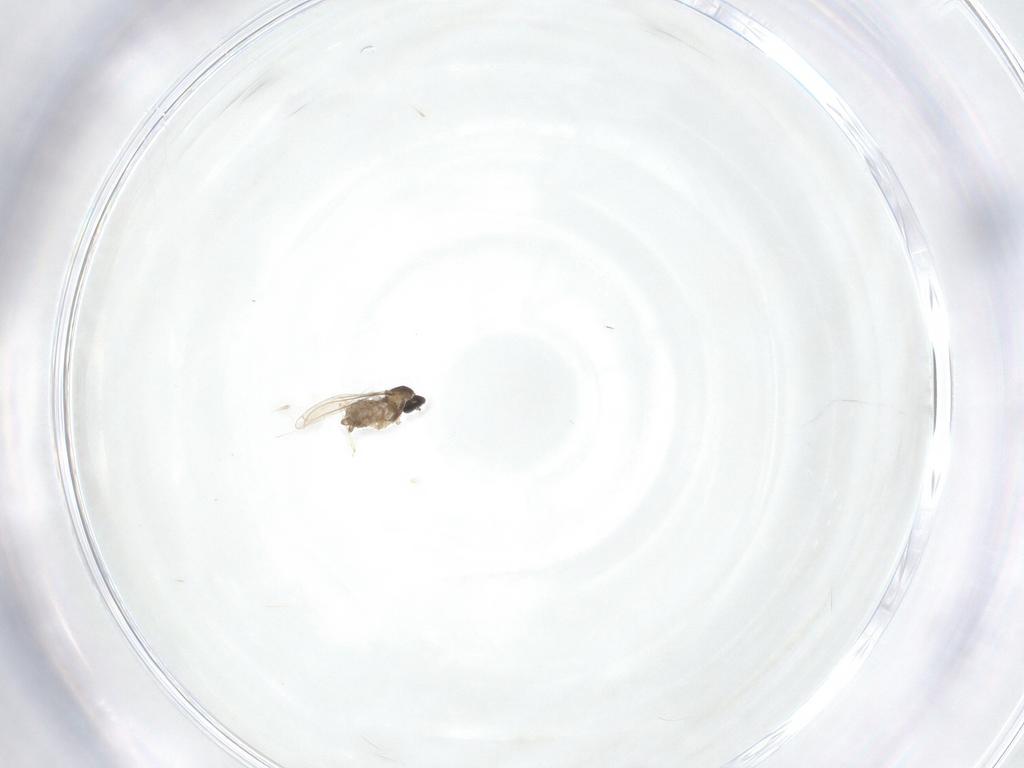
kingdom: Animalia
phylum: Arthropoda
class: Insecta
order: Diptera
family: Cecidomyiidae
